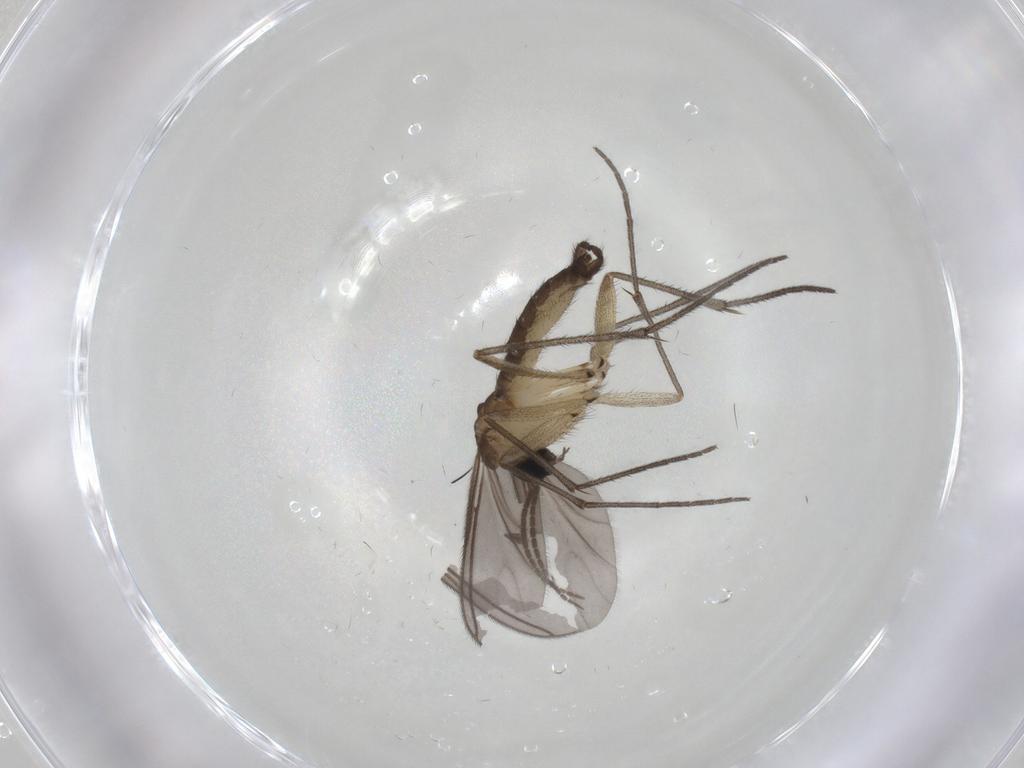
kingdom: Animalia
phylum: Arthropoda
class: Insecta
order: Diptera
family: Sciaridae
